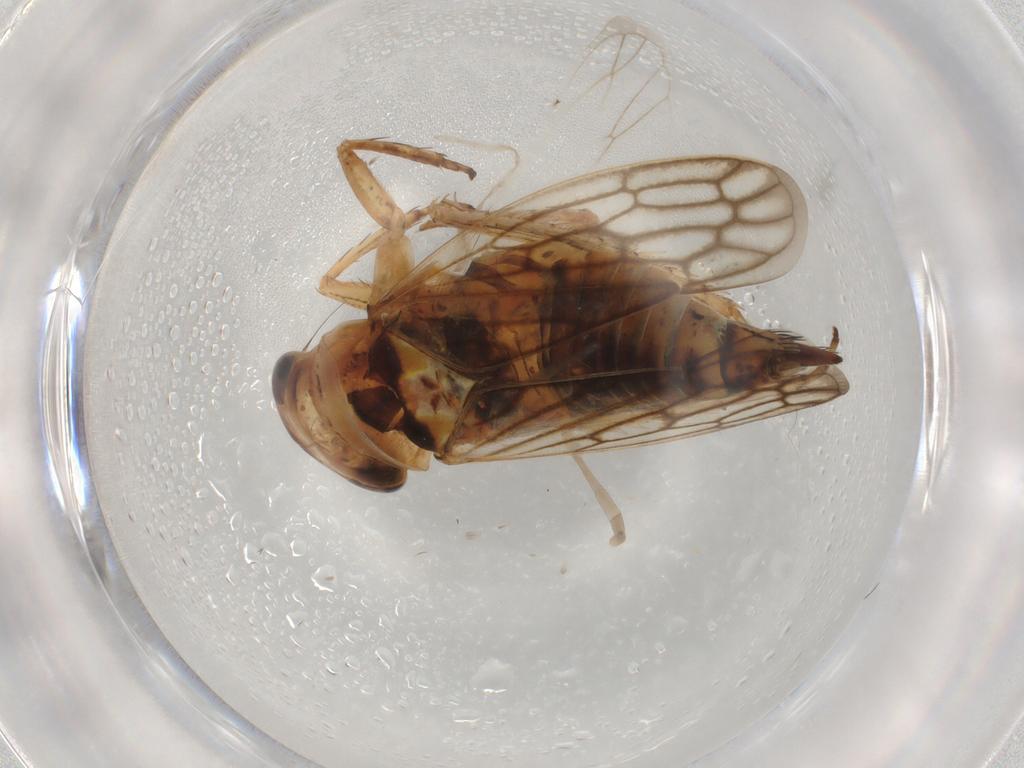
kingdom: Animalia
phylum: Arthropoda
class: Insecta
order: Hemiptera
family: Cicadellidae
